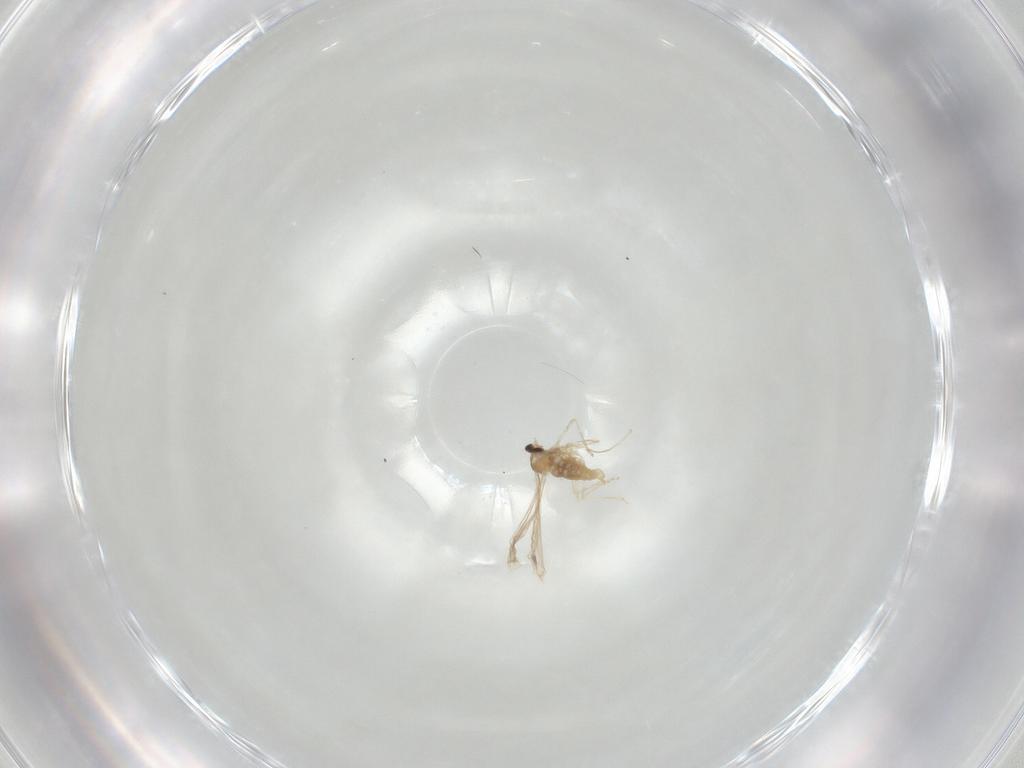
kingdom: Animalia
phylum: Arthropoda
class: Insecta
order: Diptera
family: Cecidomyiidae
